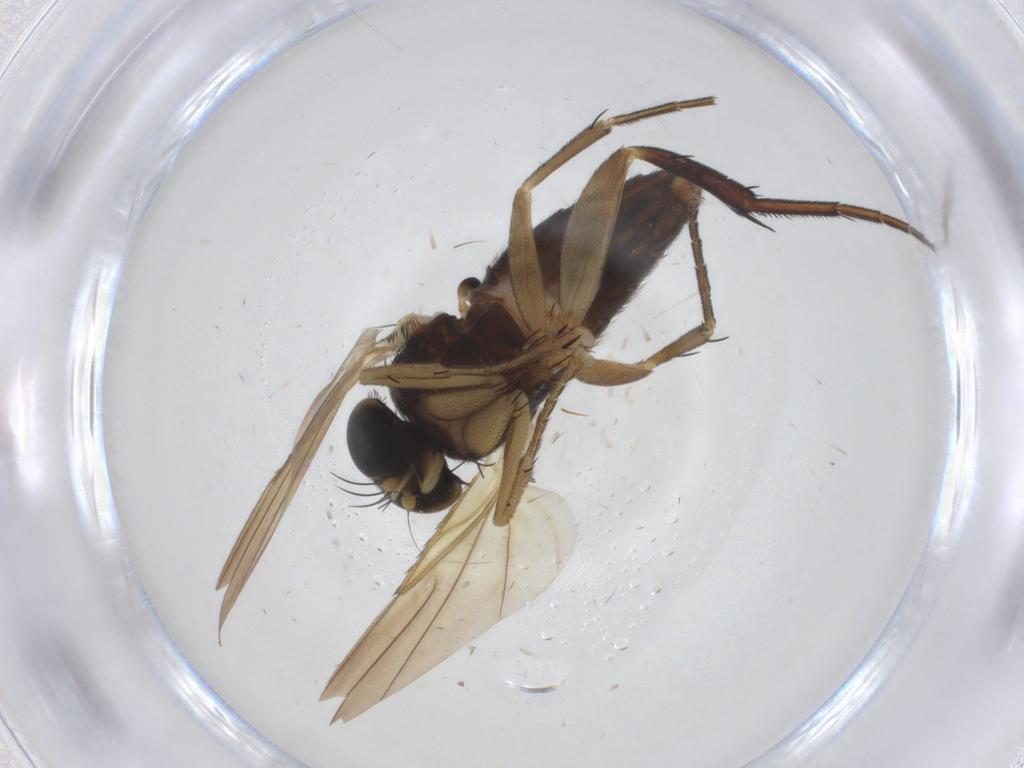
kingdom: Animalia
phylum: Arthropoda
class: Insecta
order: Diptera
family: Phoridae
